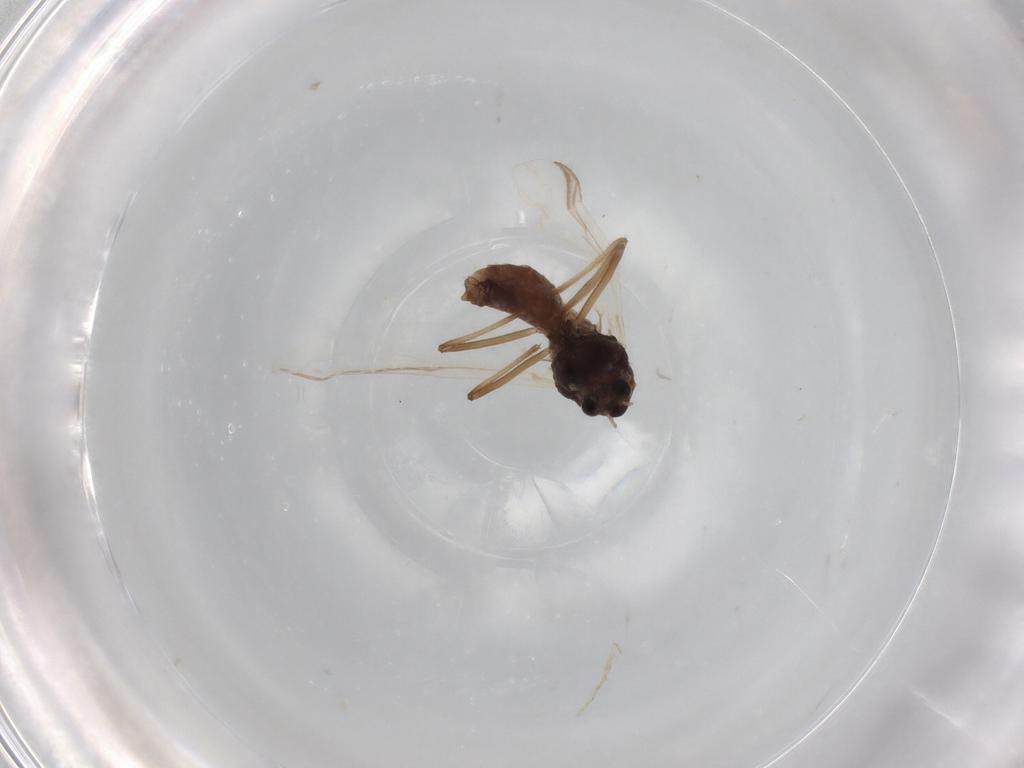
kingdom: Animalia
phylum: Arthropoda
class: Insecta
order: Diptera
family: Chironomidae
